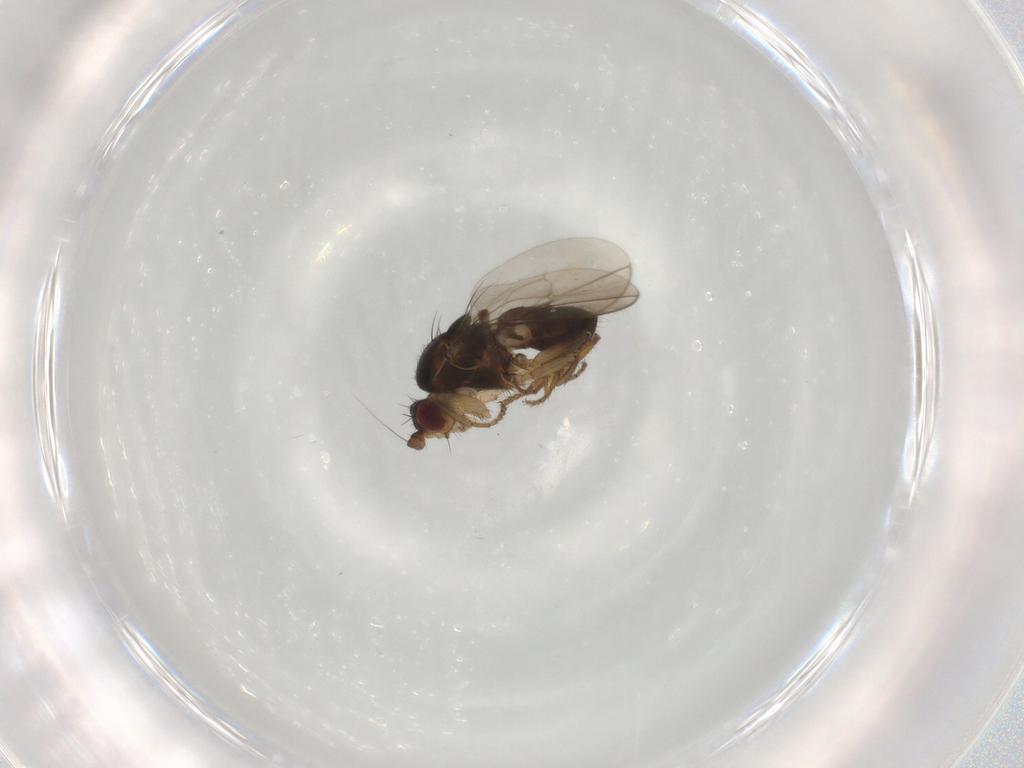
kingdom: Animalia
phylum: Arthropoda
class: Insecta
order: Diptera
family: Sphaeroceridae
